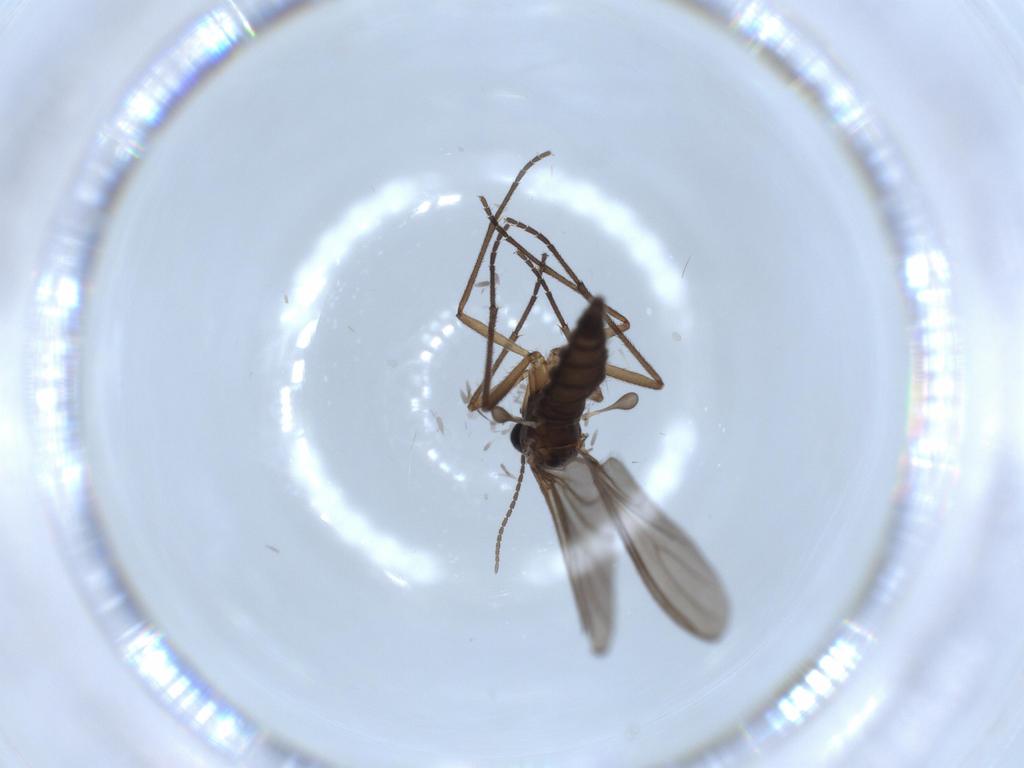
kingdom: Animalia
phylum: Arthropoda
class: Insecta
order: Diptera
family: Sciaridae
